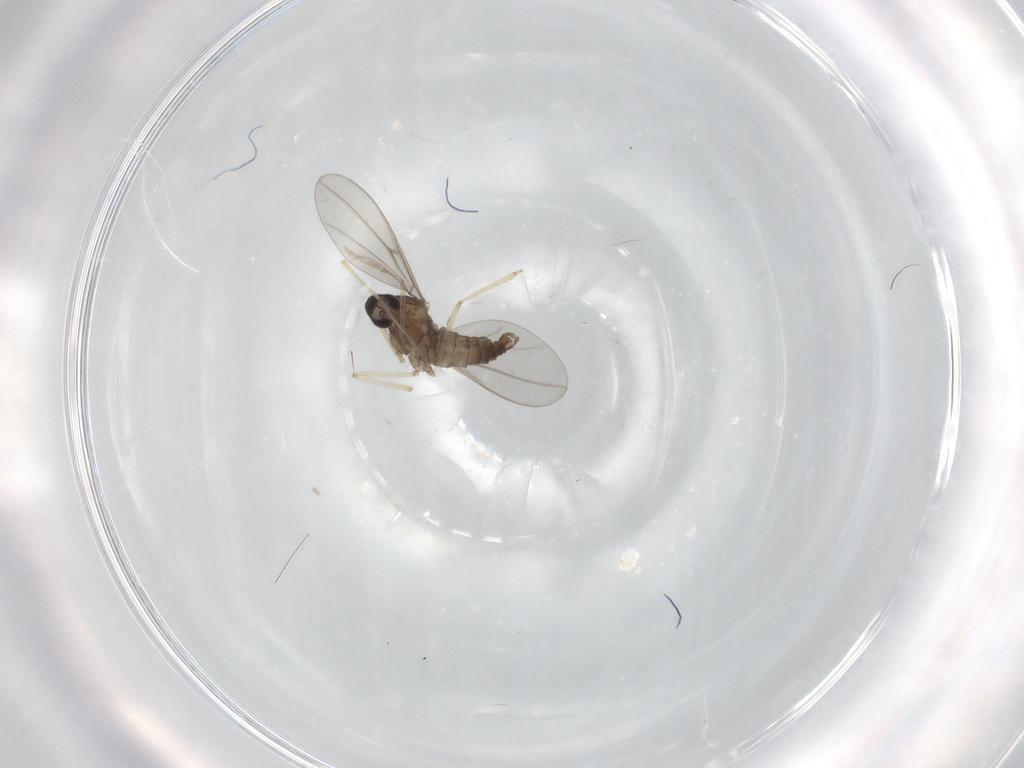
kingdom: Animalia
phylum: Arthropoda
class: Insecta
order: Diptera
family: Cecidomyiidae
